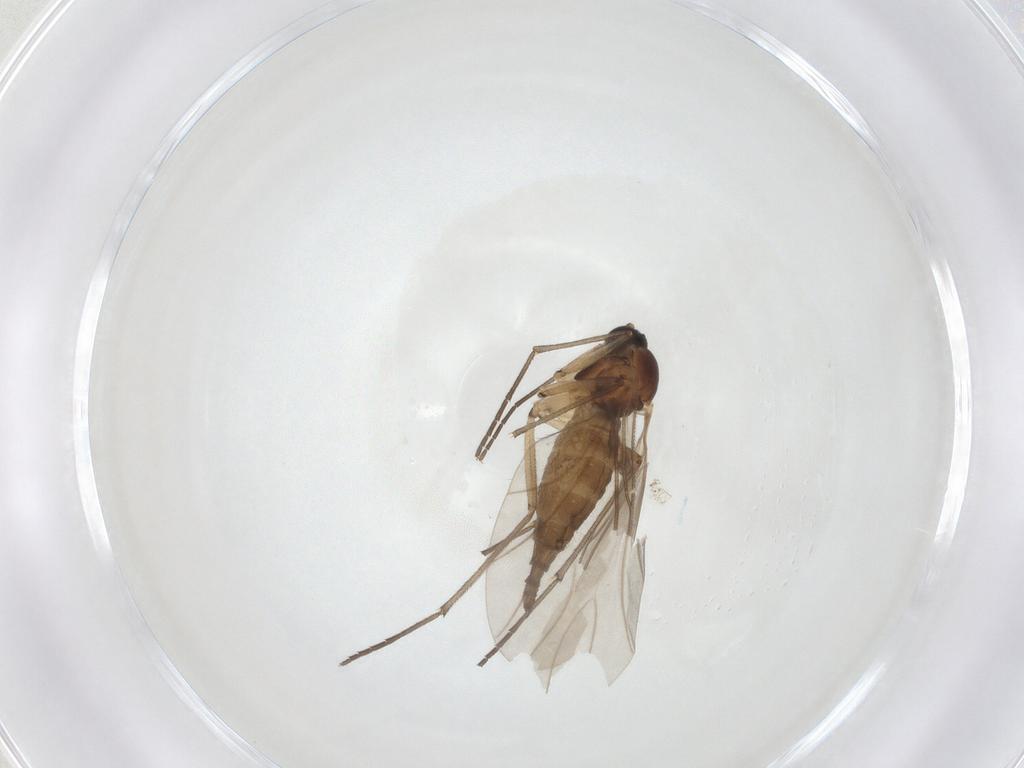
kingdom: Animalia
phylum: Arthropoda
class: Insecta
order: Diptera
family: Sciaridae
